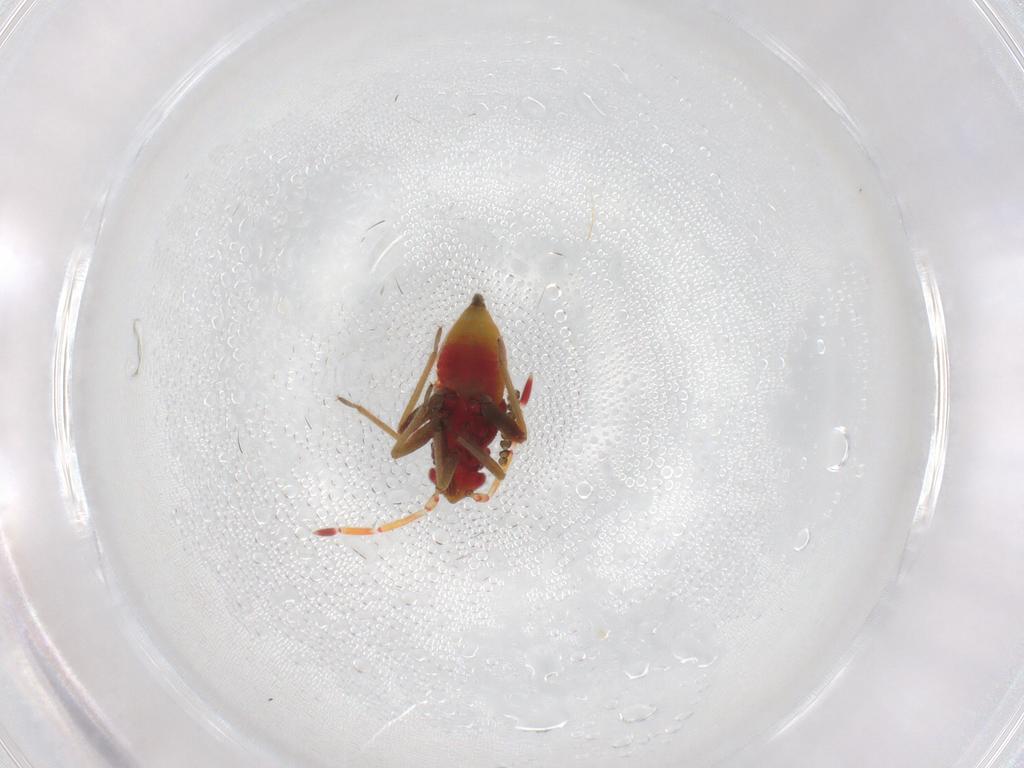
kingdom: Animalia
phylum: Arthropoda
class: Insecta
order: Hemiptera
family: Miridae
